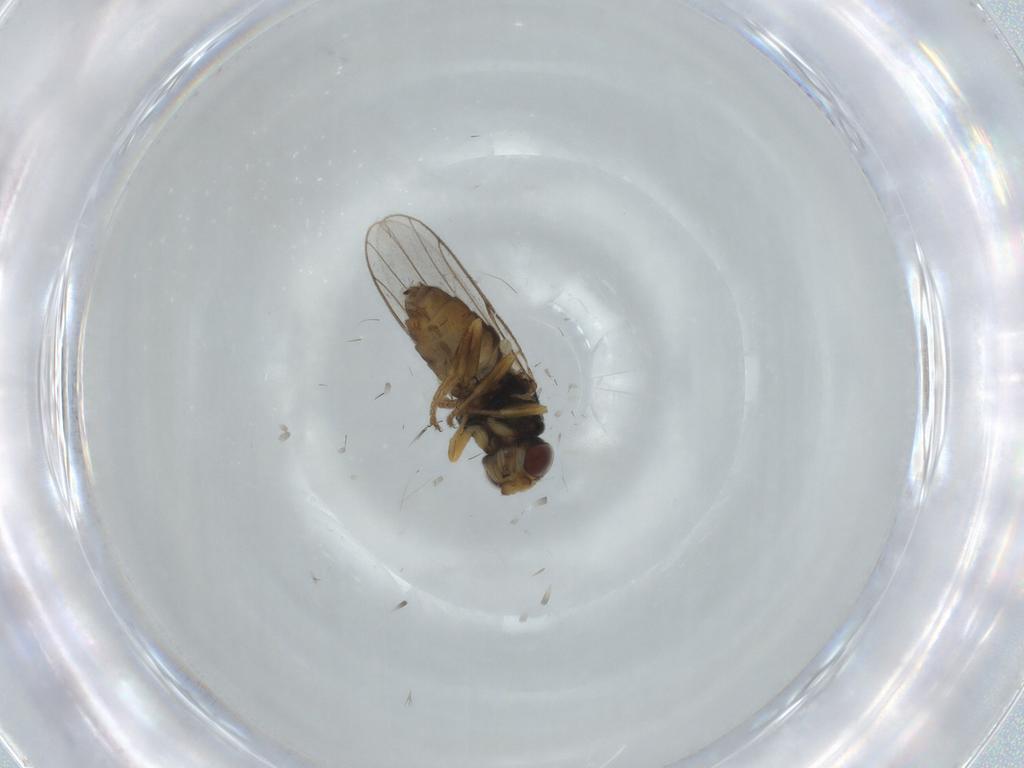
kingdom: Animalia
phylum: Arthropoda
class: Insecta
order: Diptera
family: Chloropidae
